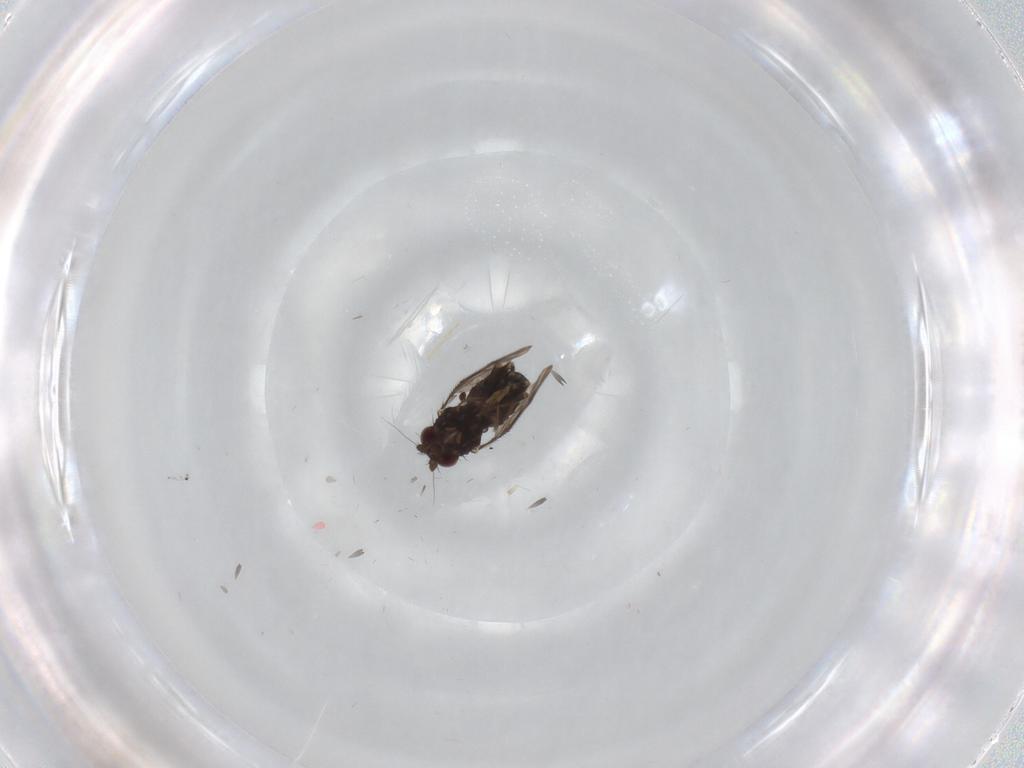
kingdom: Animalia
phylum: Arthropoda
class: Insecta
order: Diptera
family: Sphaeroceridae
